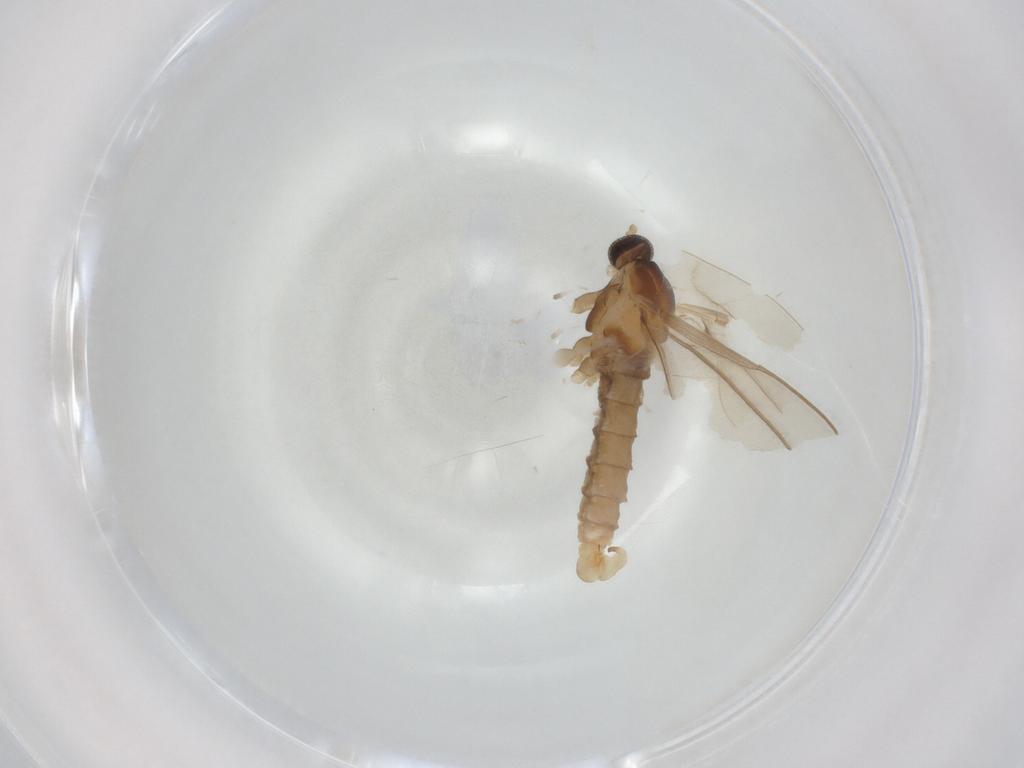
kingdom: Animalia
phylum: Arthropoda
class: Insecta
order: Diptera
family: Cecidomyiidae
